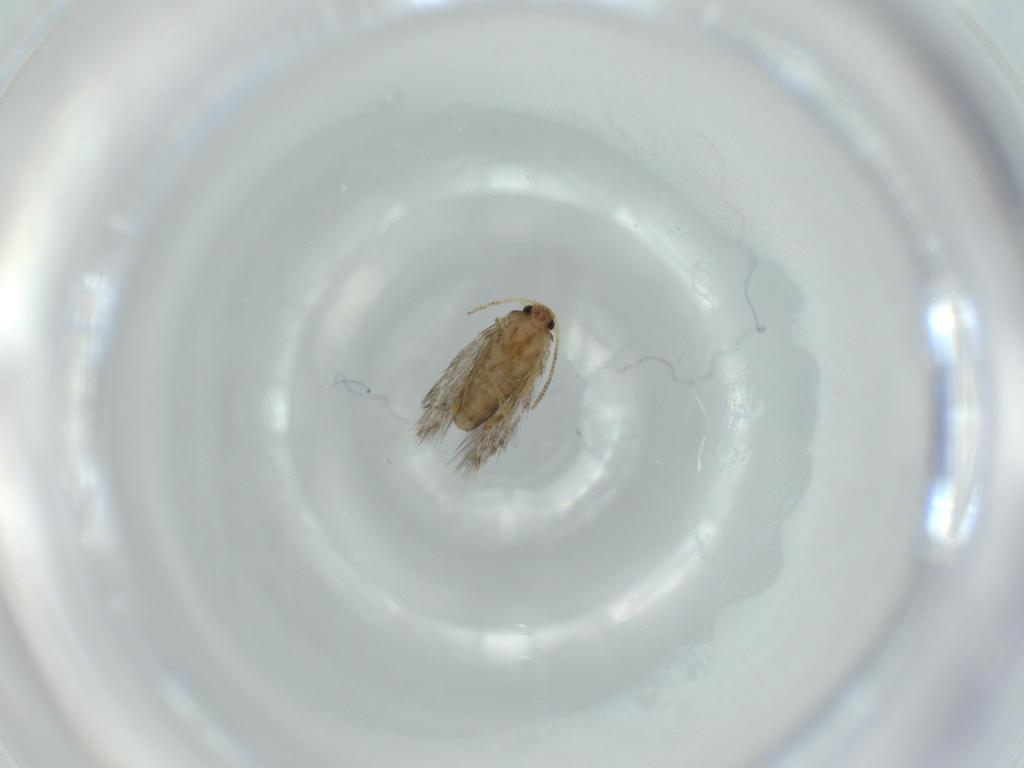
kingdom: Animalia
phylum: Arthropoda
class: Insecta
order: Lepidoptera
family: Nepticulidae
